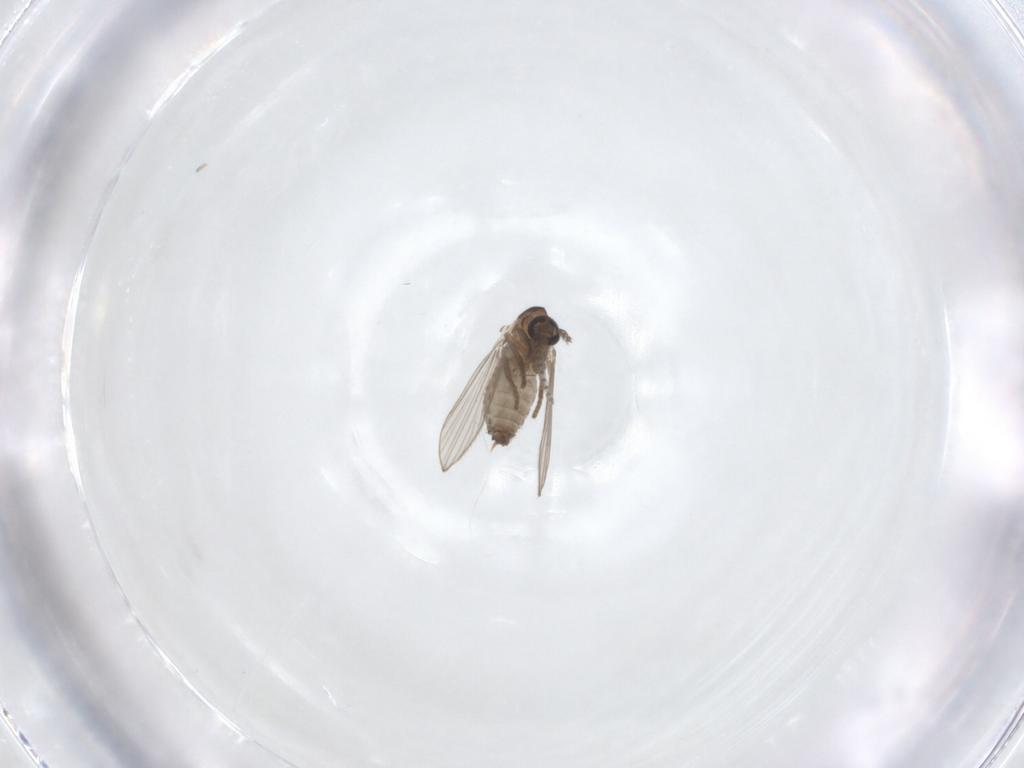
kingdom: Animalia
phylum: Arthropoda
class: Insecta
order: Diptera
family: Psychodidae
